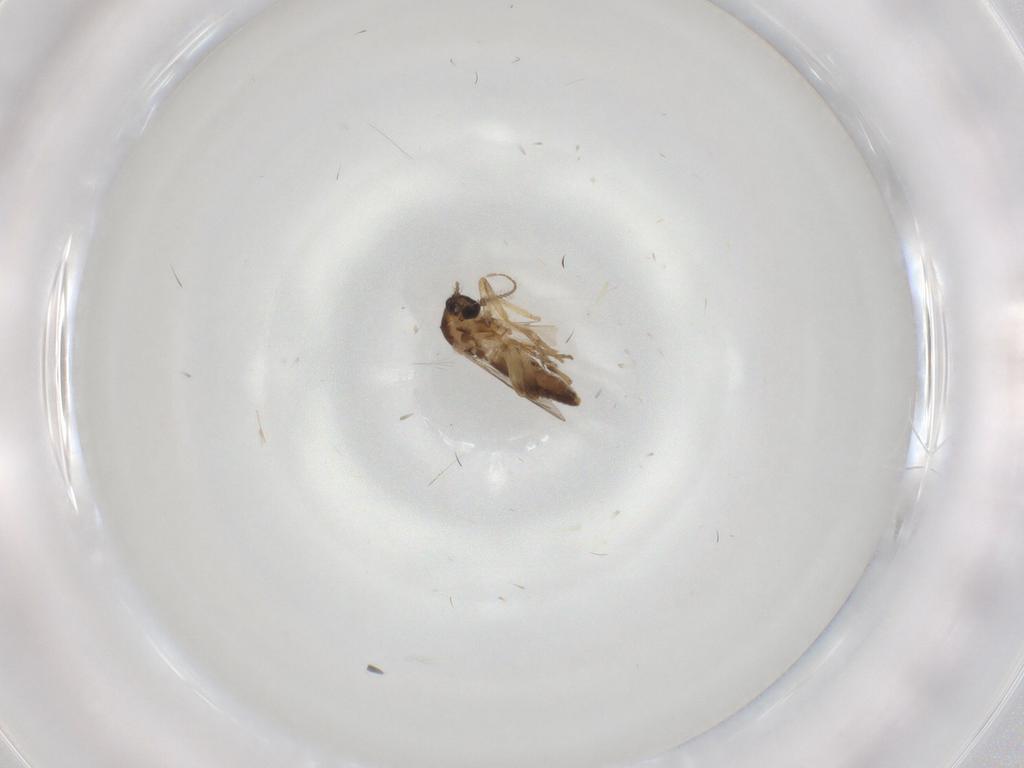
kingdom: Animalia
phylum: Arthropoda
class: Insecta
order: Diptera
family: Ceratopogonidae
